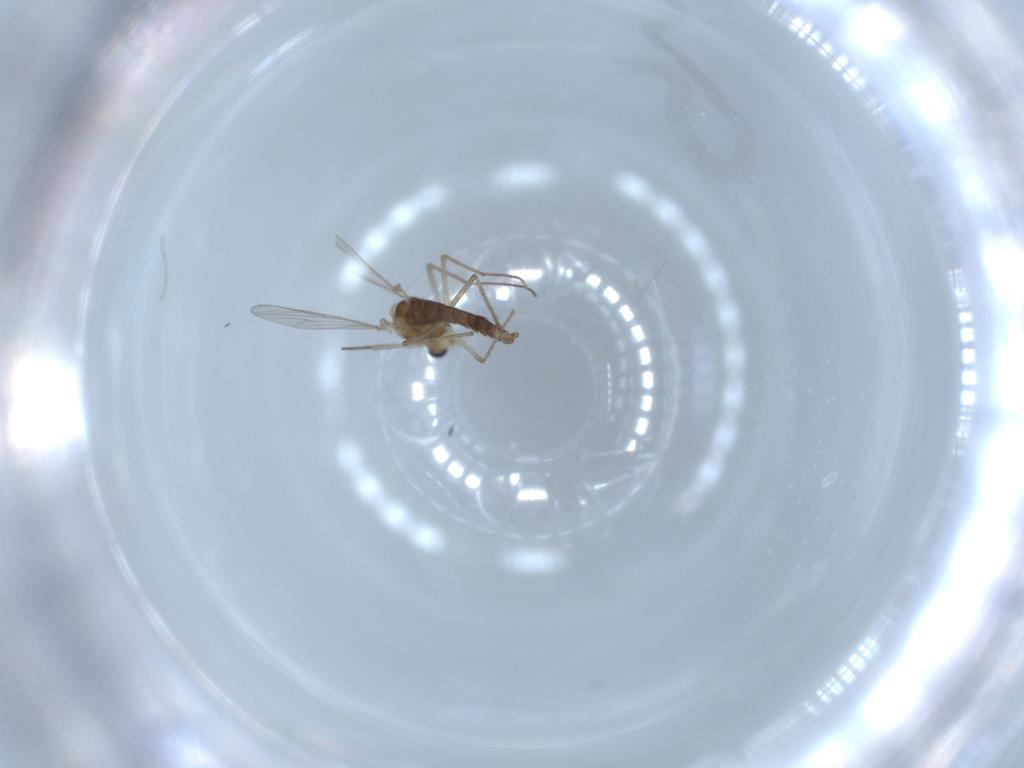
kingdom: Animalia
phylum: Arthropoda
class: Insecta
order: Diptera
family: Chironomidae
